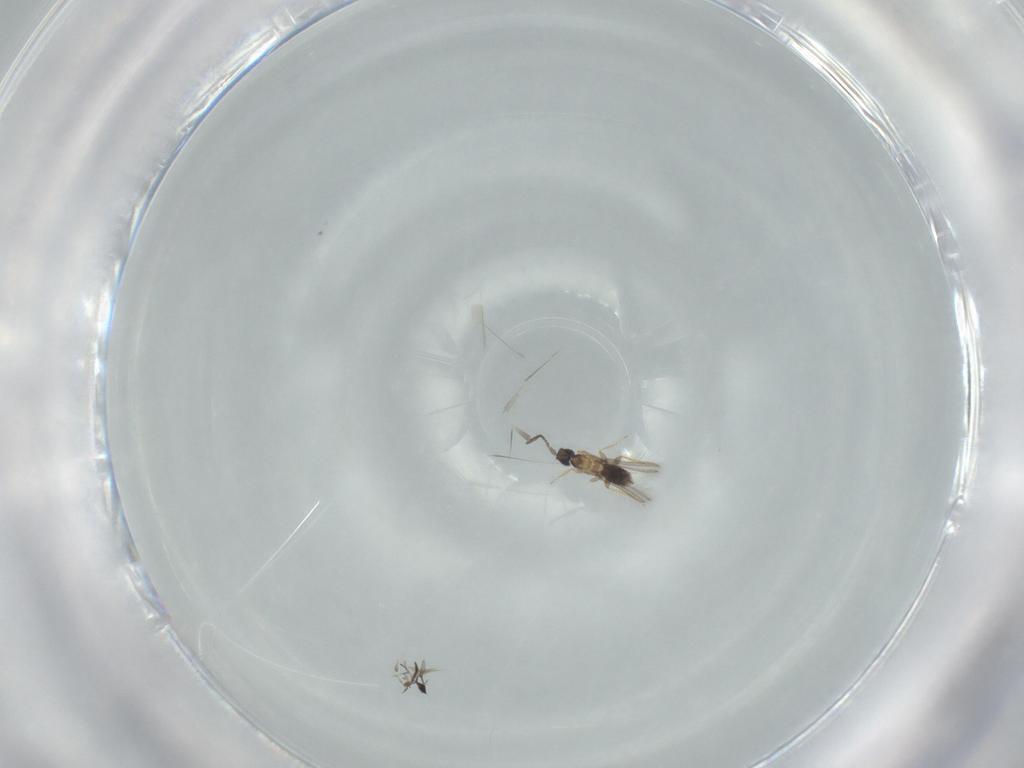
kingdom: Animalia
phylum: Arthropoda
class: Insecta
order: Hymenoptera
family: Mymaridae
